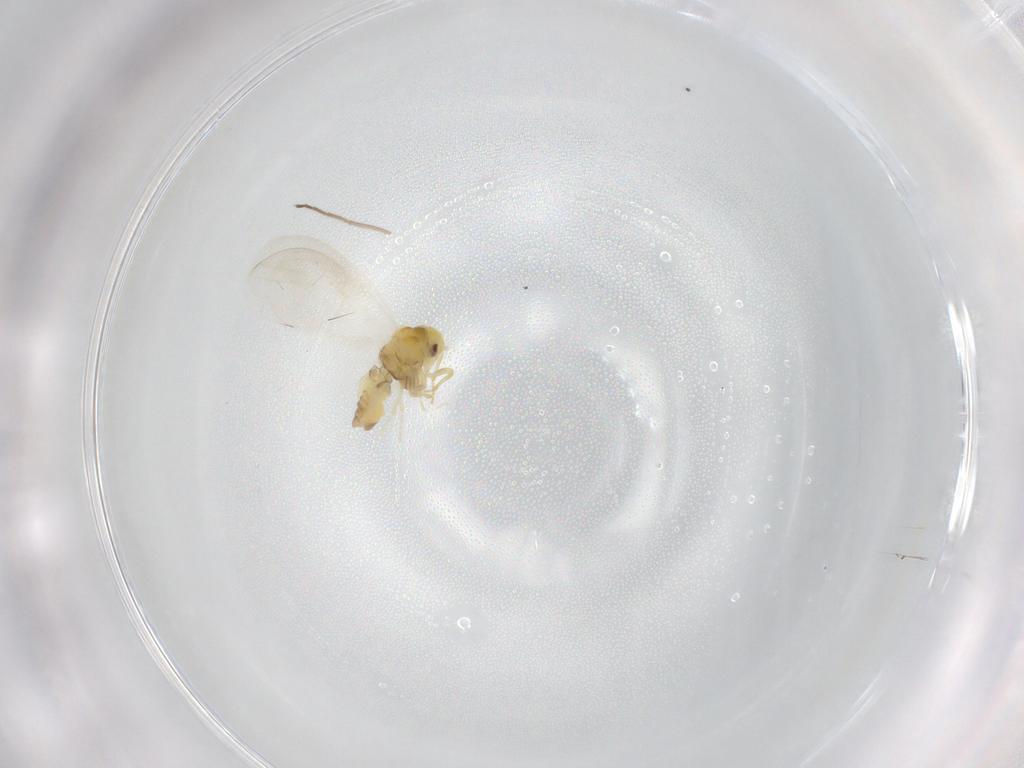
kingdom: Animalia
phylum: Arthropoda
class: Insecta
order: Hemiptera
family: Aleyrodidae
